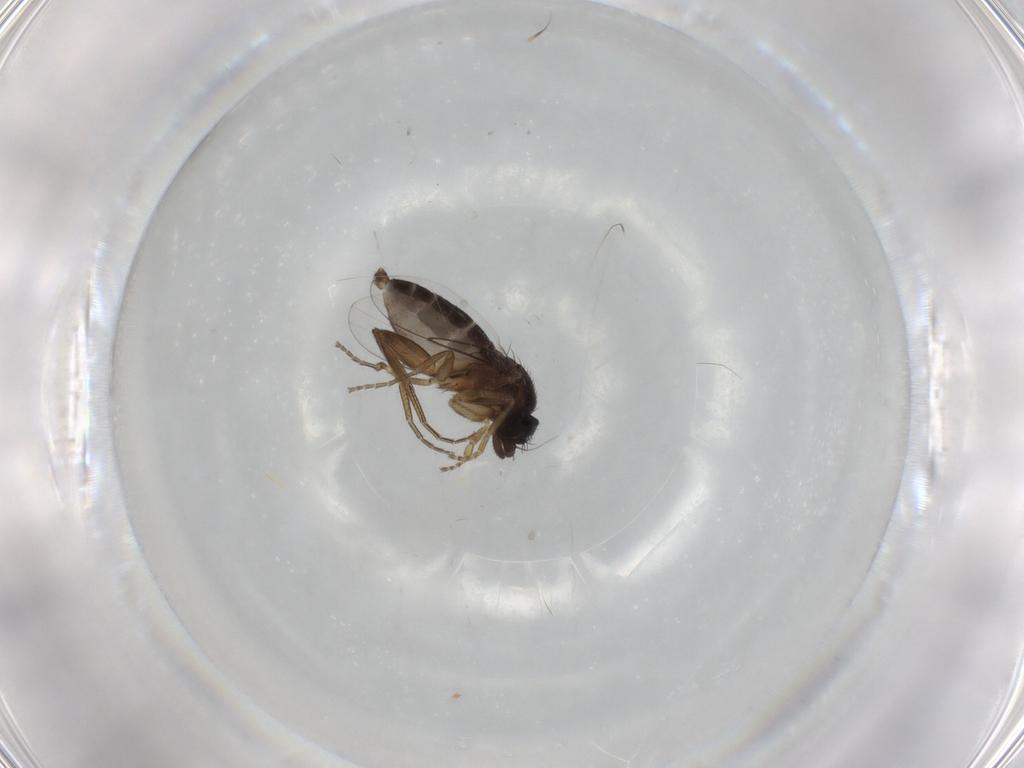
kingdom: Animalia
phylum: Arthropoda
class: Insecta
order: Diptera
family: Phoridae
